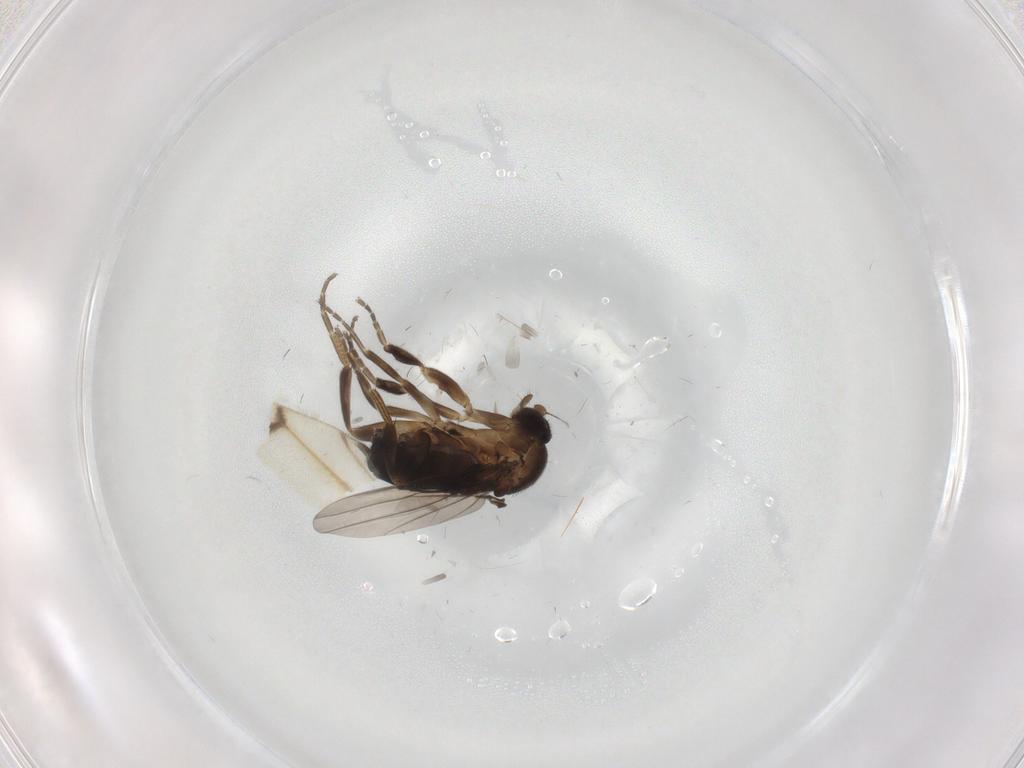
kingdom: Animalia
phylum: Arthropoda
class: Insecta
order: Diptera
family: Cecidomyiidae
